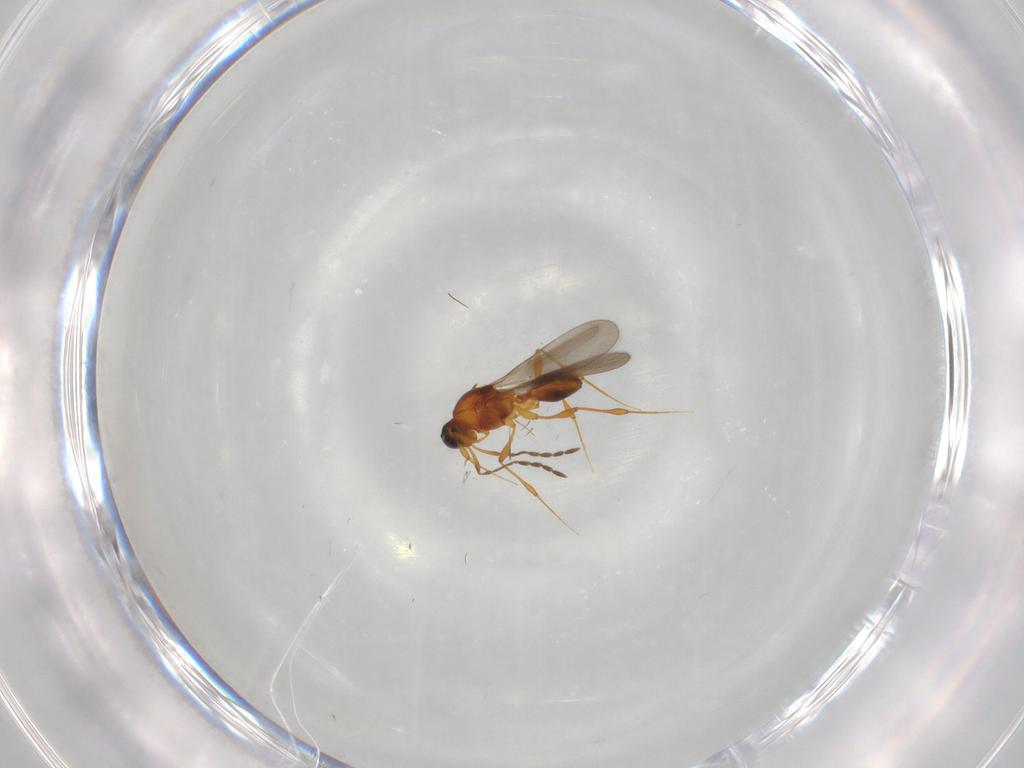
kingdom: Animalia
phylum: Arthropoda
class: Insecta
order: Hymenoptera
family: Platygastridae
